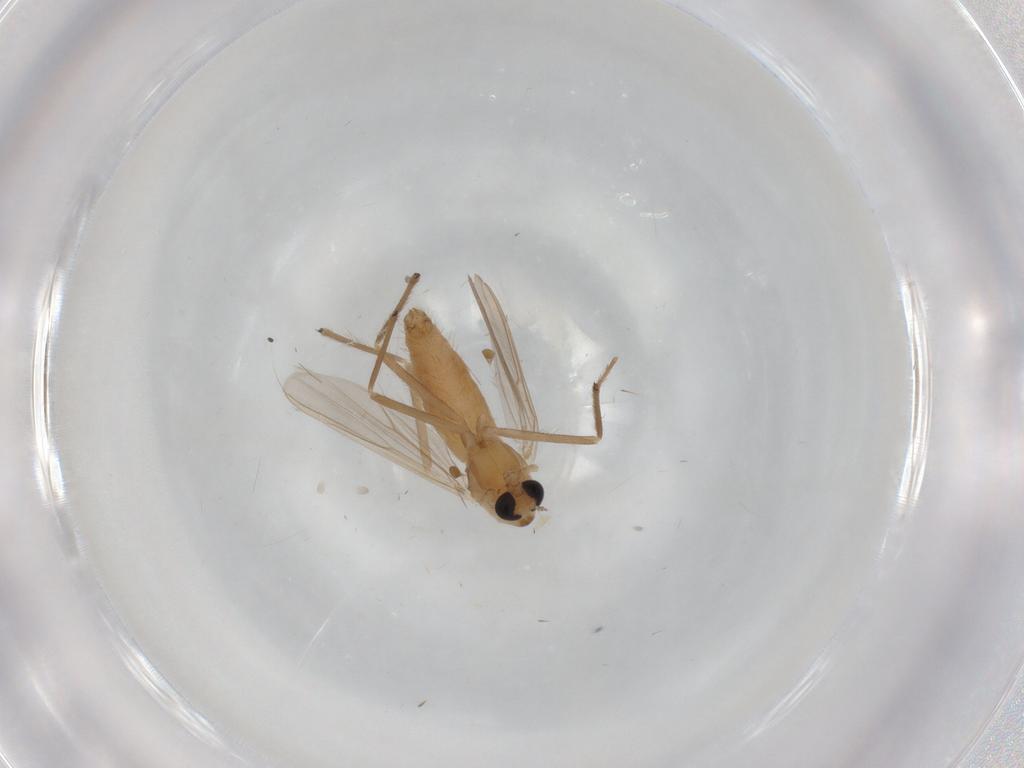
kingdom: Animalia
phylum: Arthropoda
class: Insecta
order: Diptera
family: Chironomidae
